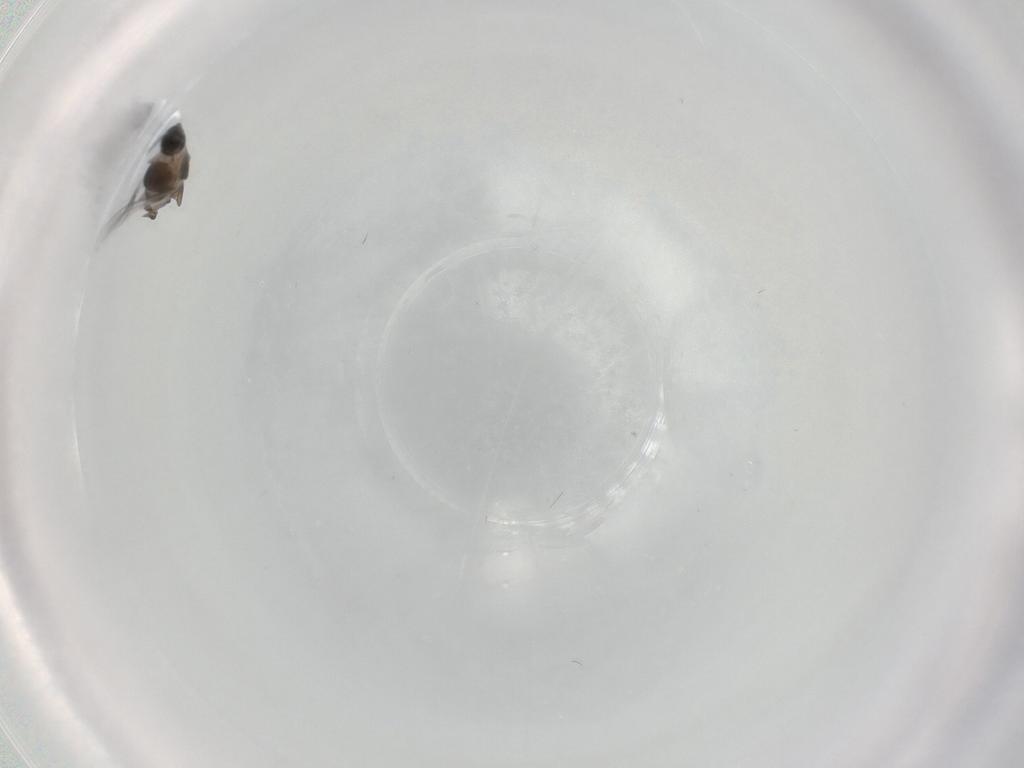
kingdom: Animalia
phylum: Arthropoda
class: Insecta
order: Diptera
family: Cecidomyiidae
